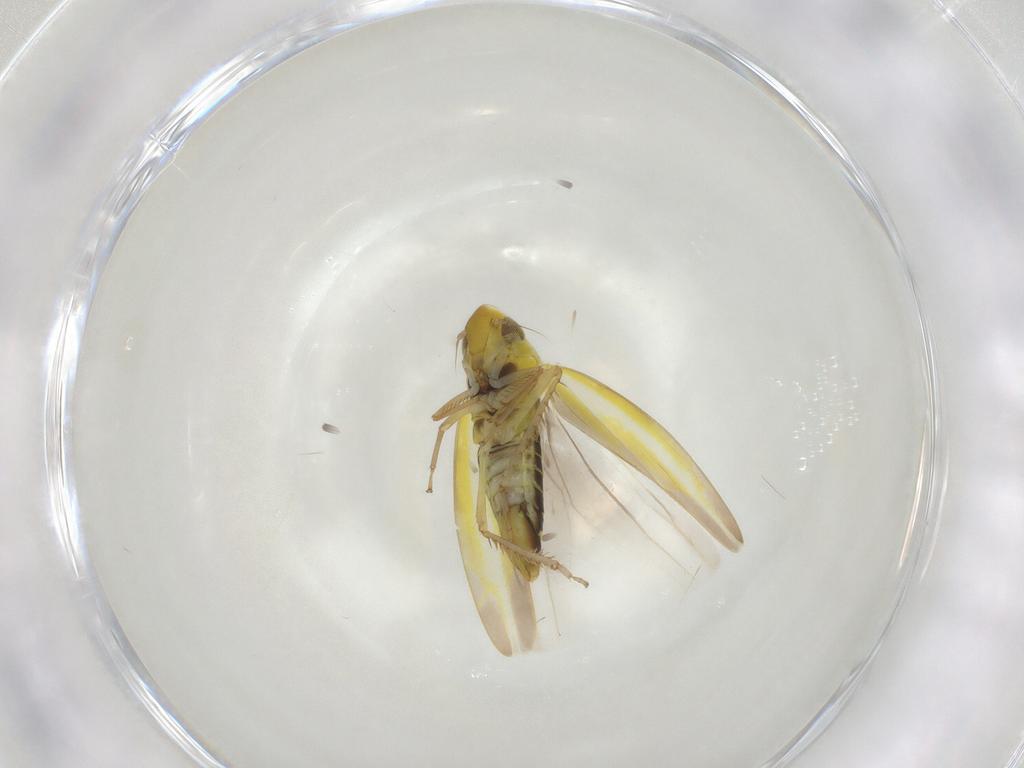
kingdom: Animalia
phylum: Arthropoda
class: Insecta
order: Hemiptera
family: Cicadellidae
